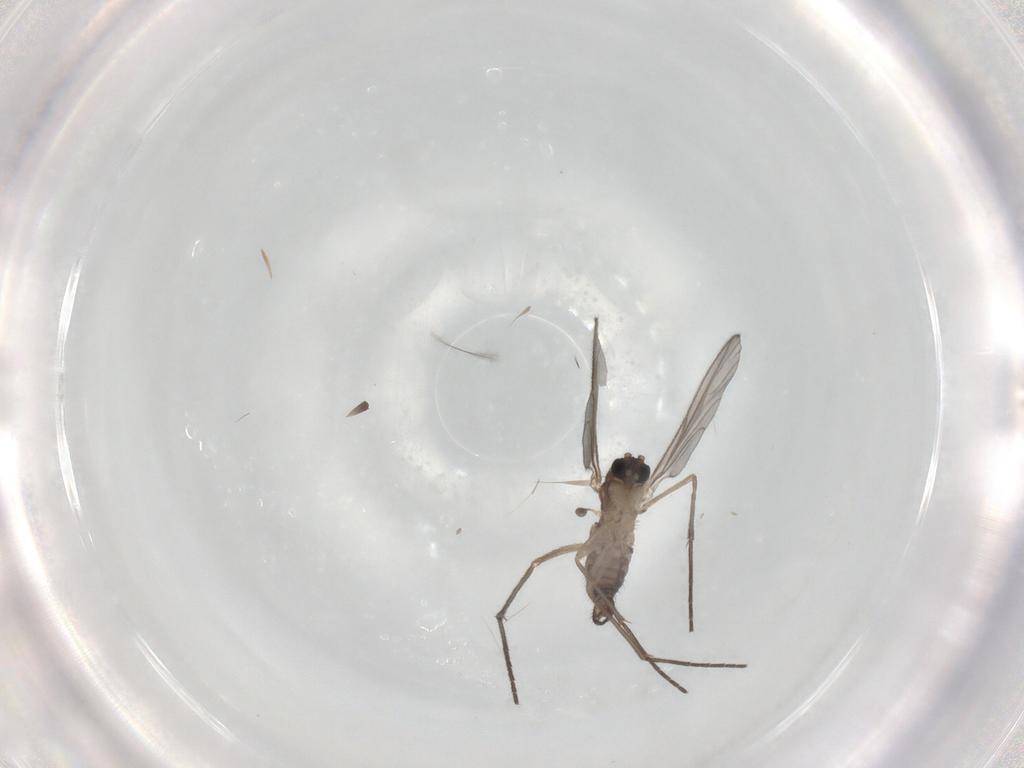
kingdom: Animalia
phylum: Arthropoda
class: Insecta
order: Diptera
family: Cecidomyiidae
